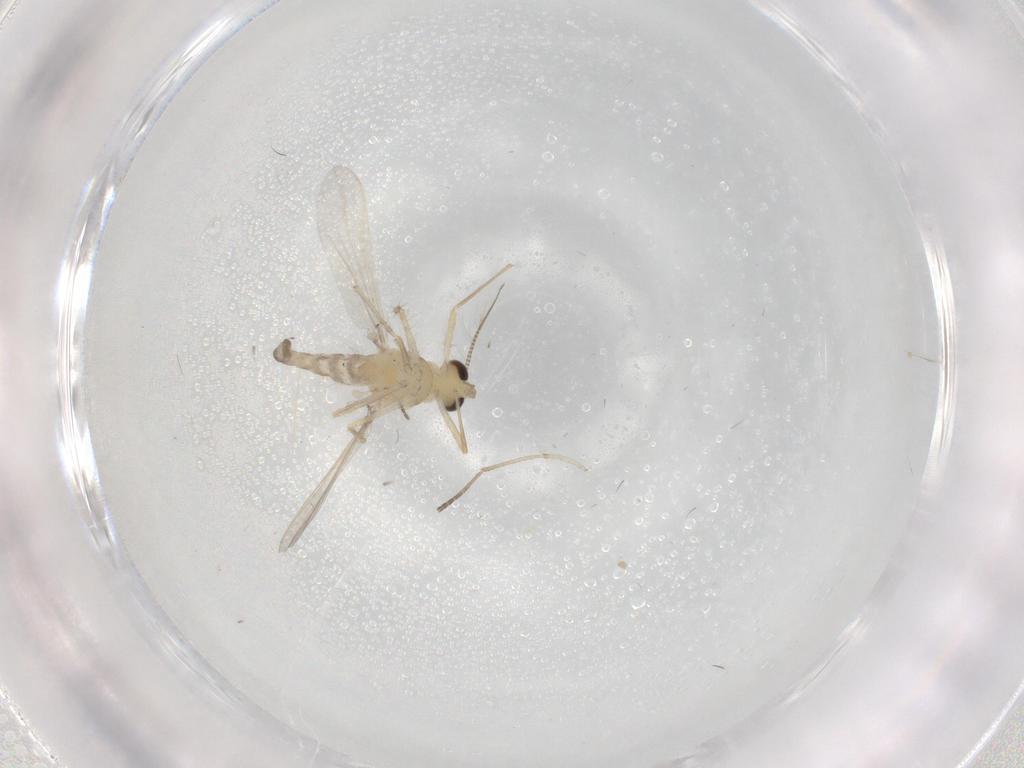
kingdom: Animalia
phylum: Arthropoda
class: Insecta
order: Diptera
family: Chironomidae
